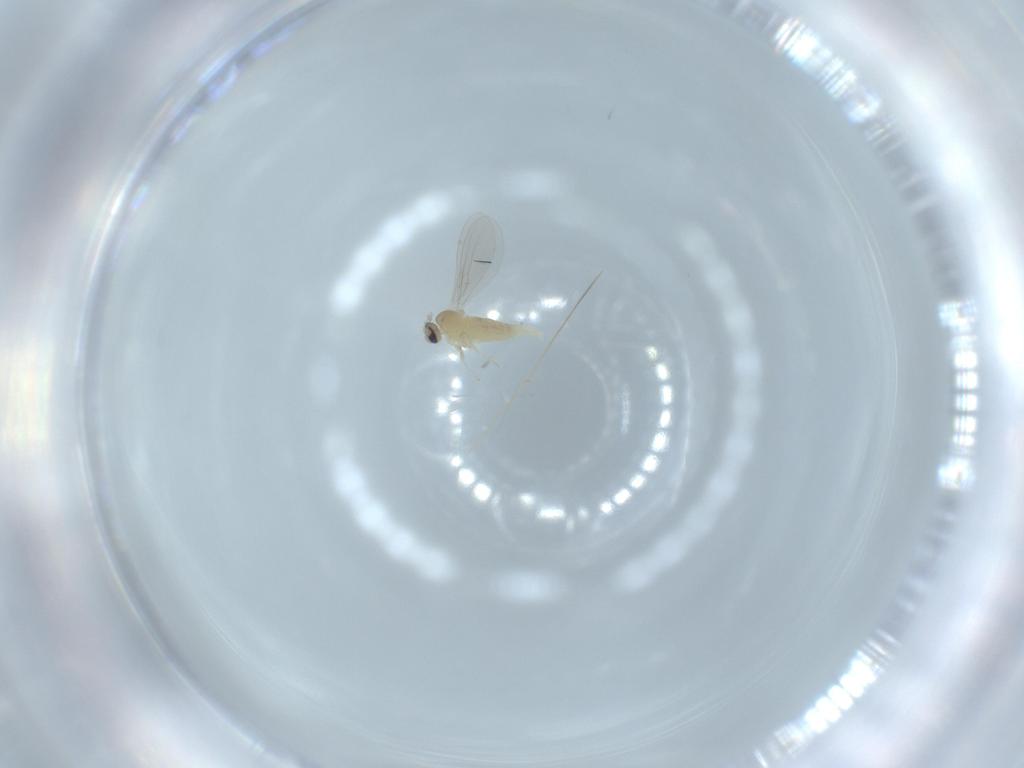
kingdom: Animalia
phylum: Arthropoda
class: Insecta
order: Diptera
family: Cecidomyiidae
